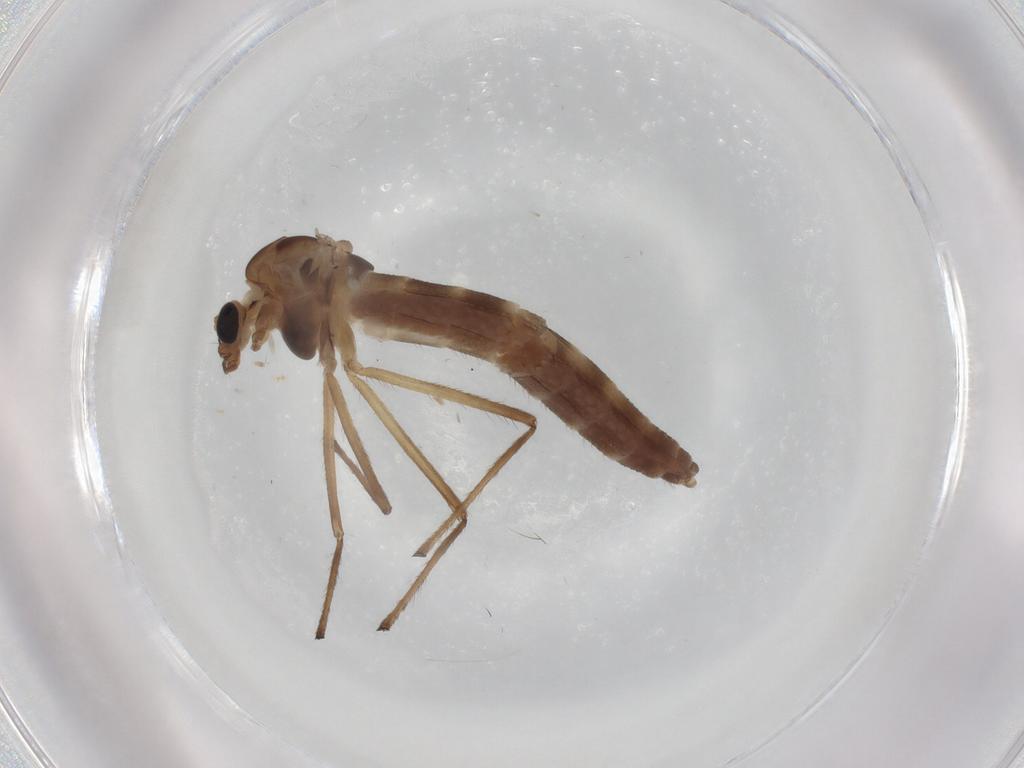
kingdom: Animalia
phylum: Arthropoda
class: Insecta
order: Diptera
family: Chironomidae
